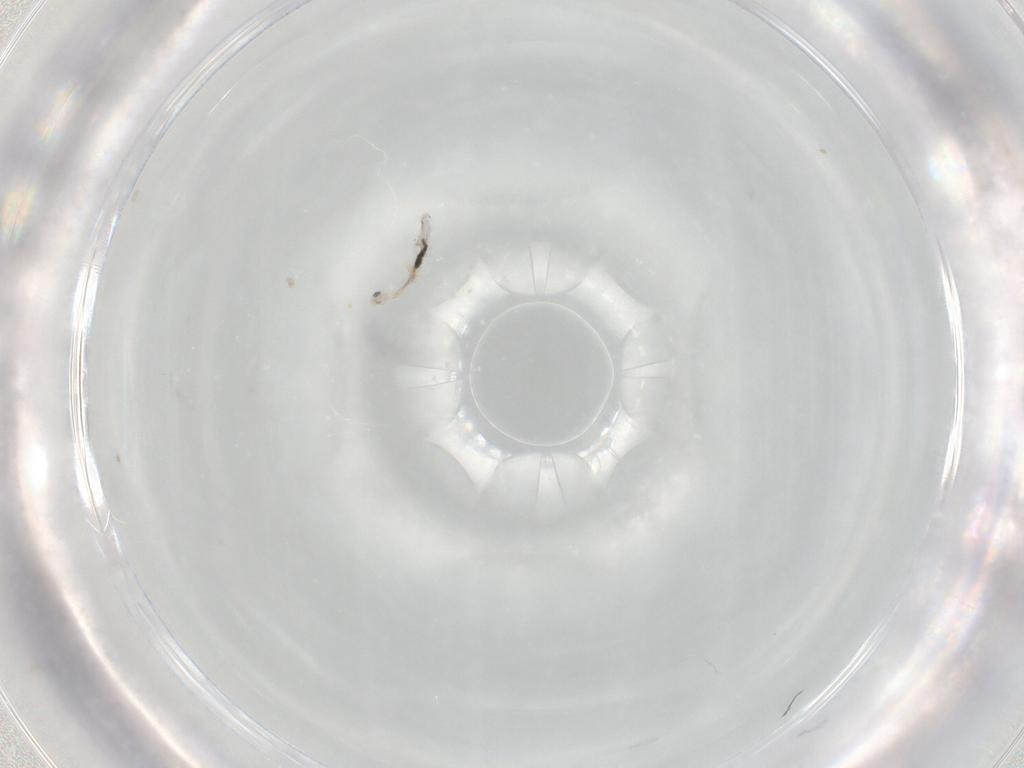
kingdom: Animalia
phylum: Arthropoda
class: Collembola
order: Entomobryomorpha
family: Entomobryidae
